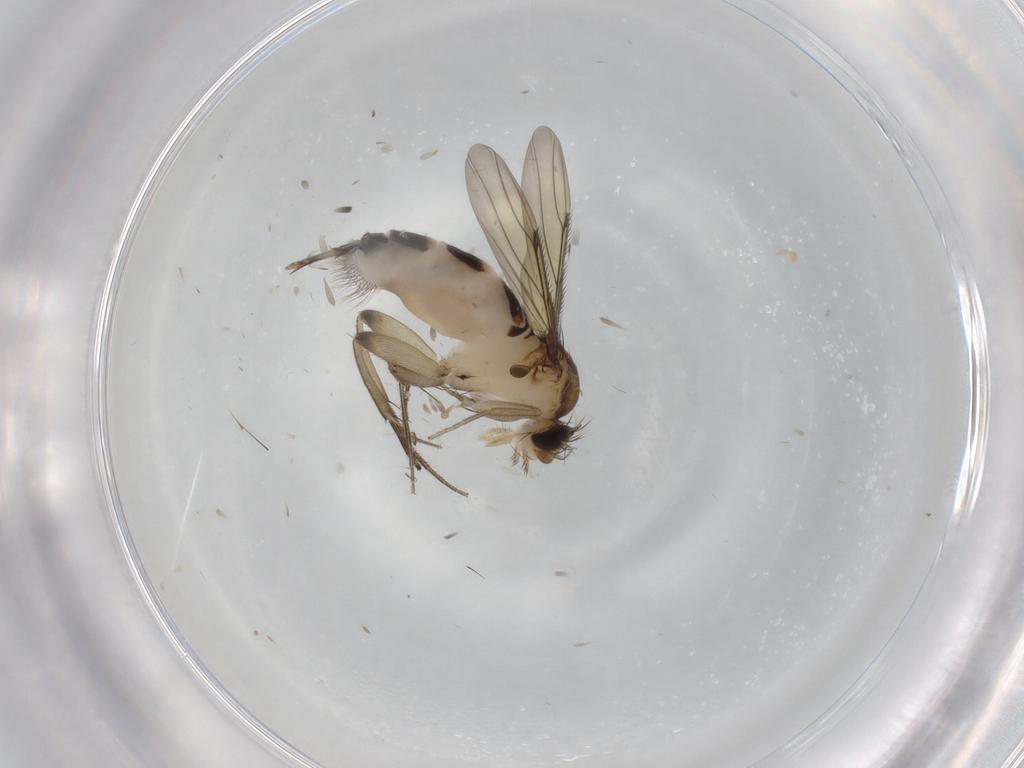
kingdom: Animalia
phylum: Arthropoda
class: Insecta
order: Diptera
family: Phoridae
